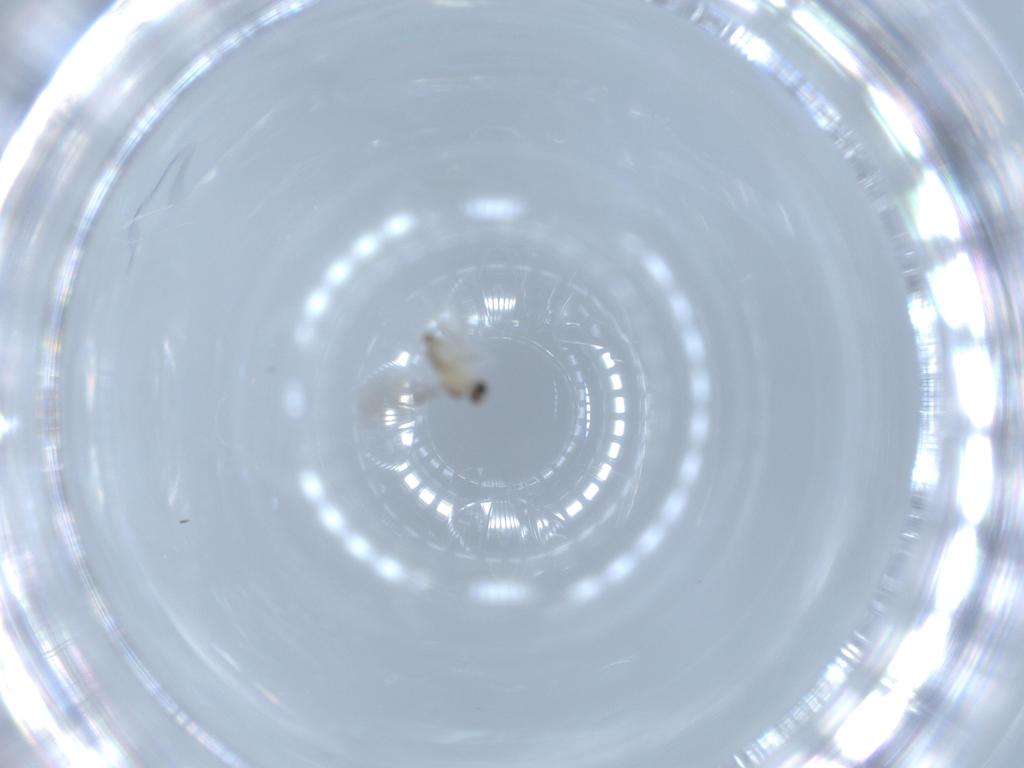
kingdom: Animalia
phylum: Arthropoda
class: Insecta
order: Diptera
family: Cecidomyiidae
